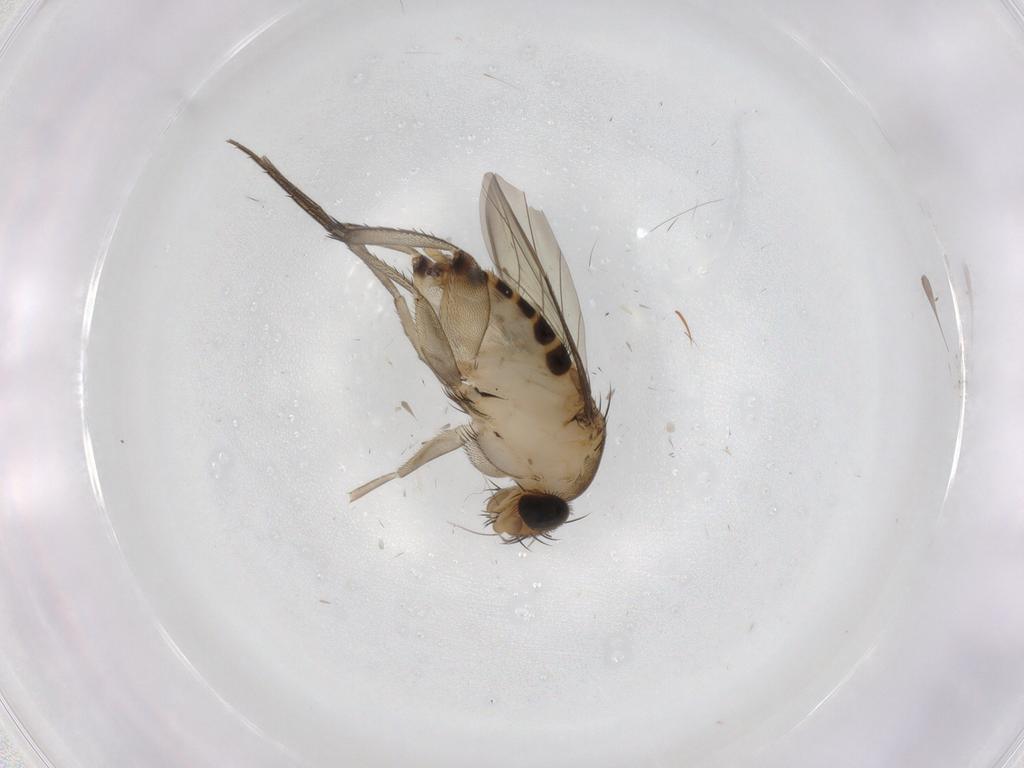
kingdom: Animalia
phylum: Arthropoda
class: Insecta
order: Diptera
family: Phoridae
